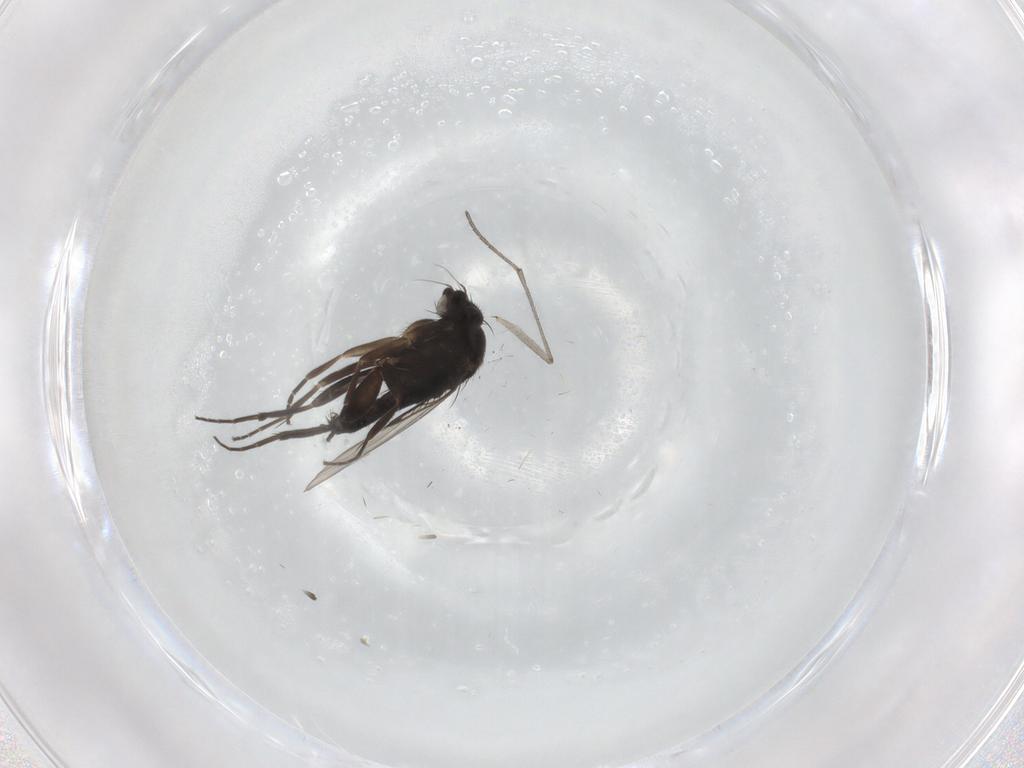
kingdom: Animalia
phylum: Arthropoda
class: Insecta
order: Diptera
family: Phoridae
